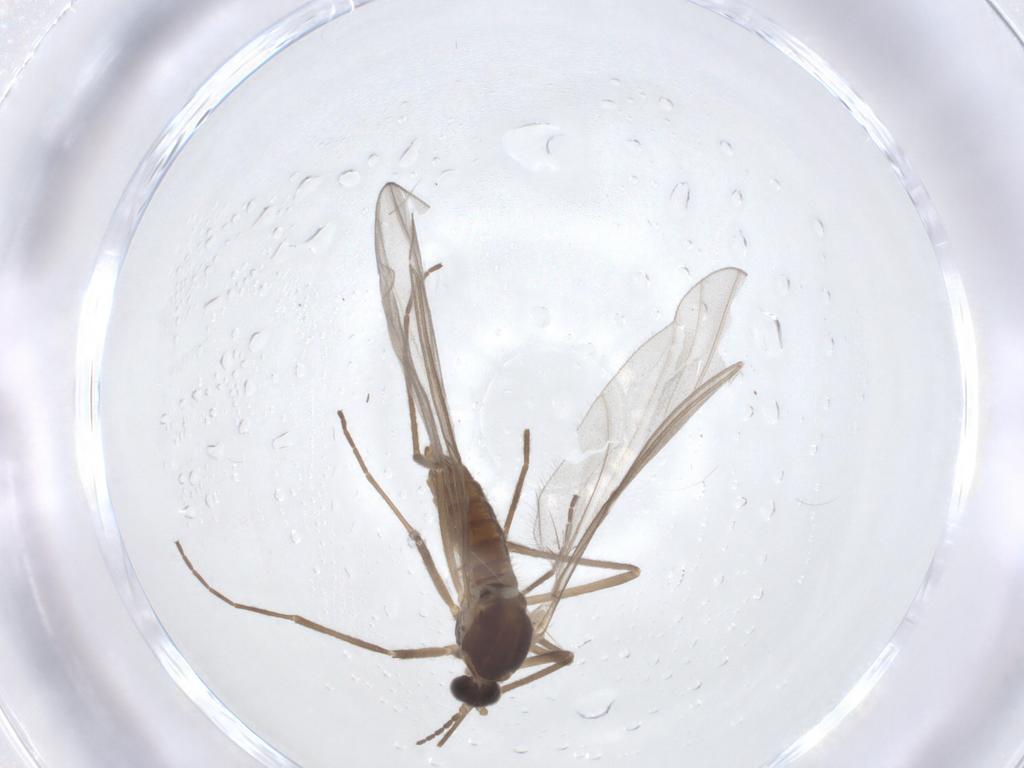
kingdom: Animalia
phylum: Arthropoda
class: Insecta
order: Diptera
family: Cecidomyiidae
